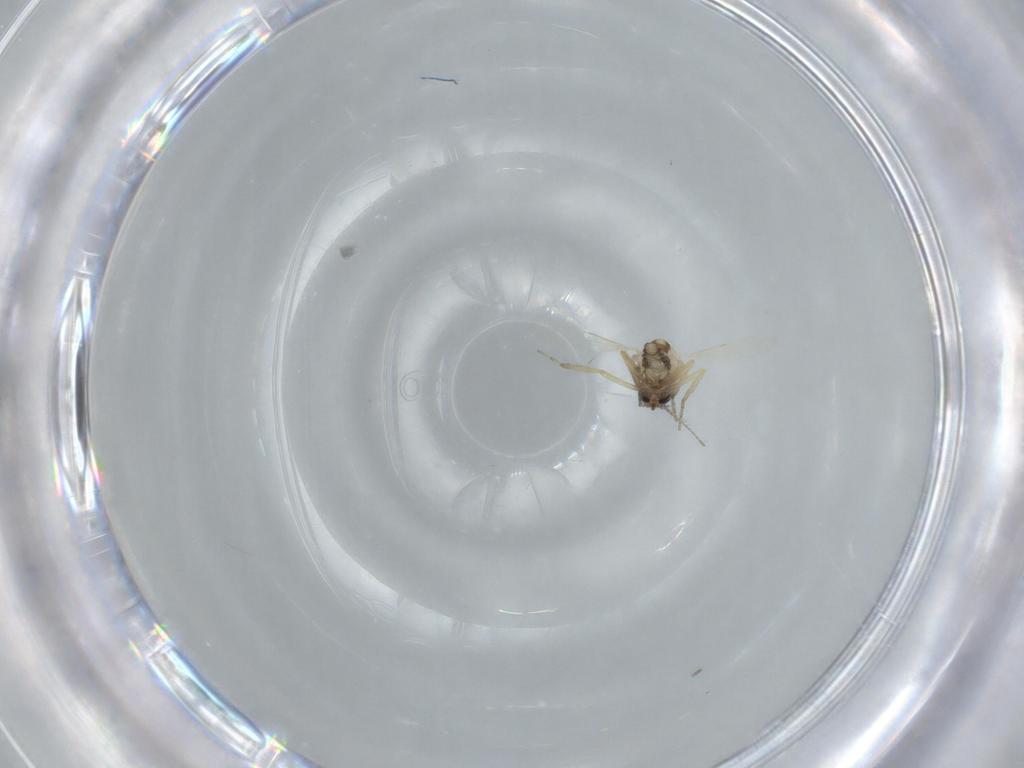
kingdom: Animalia
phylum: Arthropoda
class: Insecta
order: Diptera
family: Ceratopogonidae
